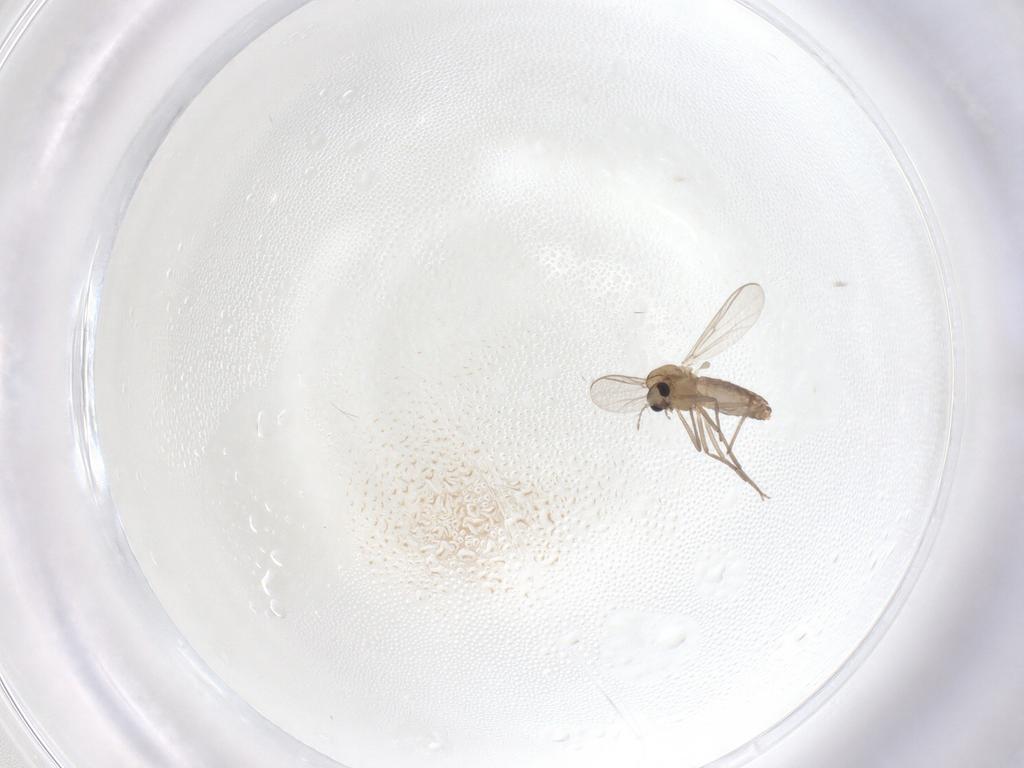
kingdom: Animalia
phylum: Arthropoda
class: Insecta
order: Diptera
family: Chironomidae
